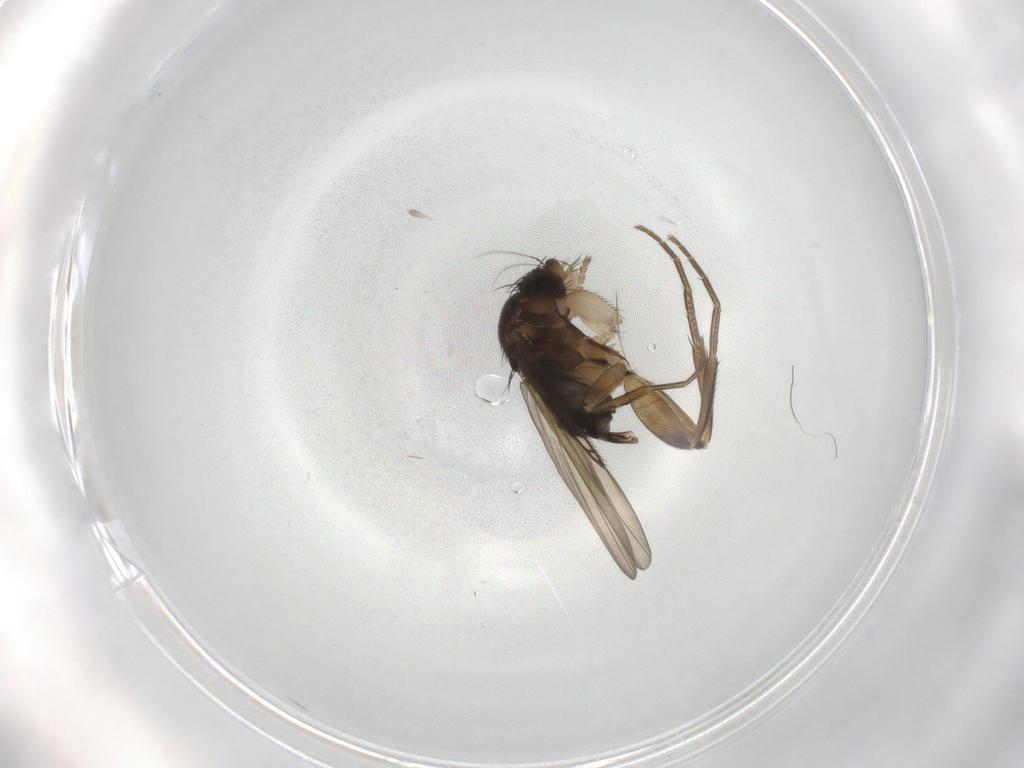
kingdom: Animalia
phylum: Arthropoda
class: Insecta
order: Diptera
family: Phoridae
